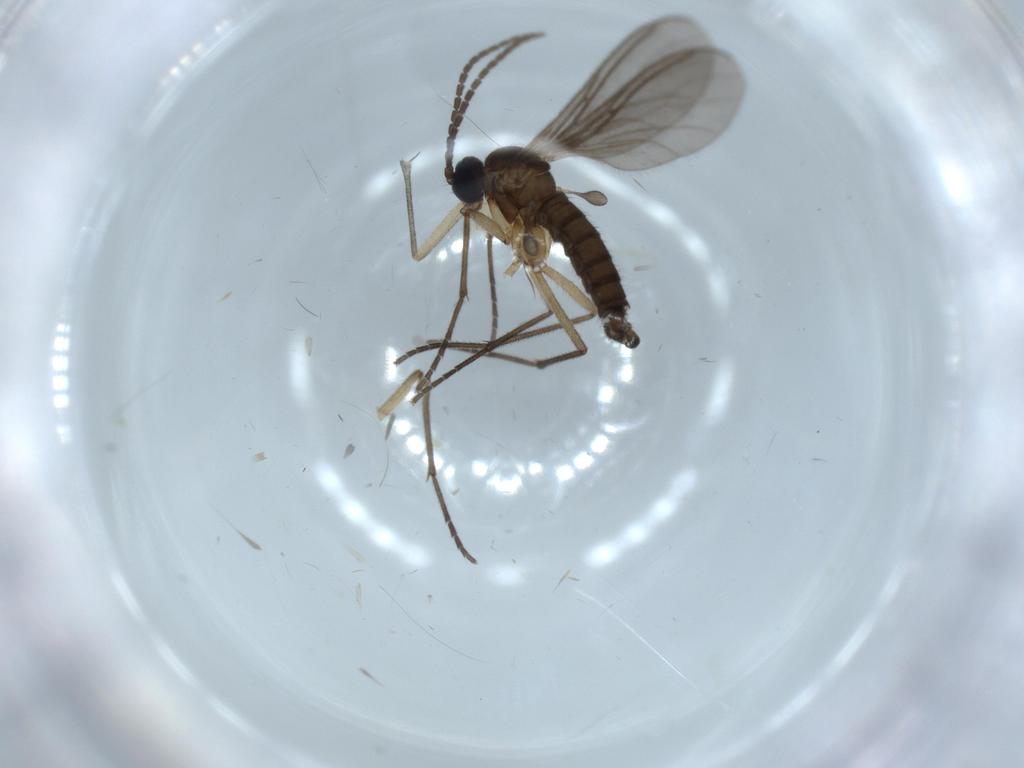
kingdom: Animalia
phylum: Arthropoda
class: Insecta
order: Diptera
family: Sciaridae
